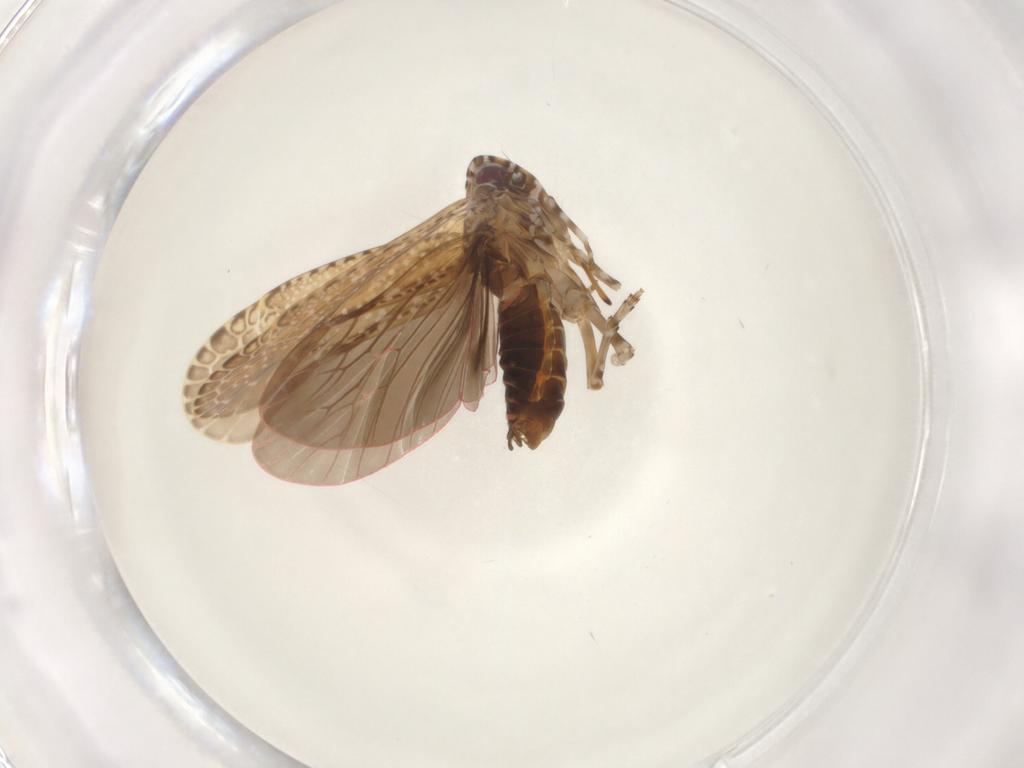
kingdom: Animalia
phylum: Arthropoda
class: Insecta
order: Hemiptera
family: Achilidae
